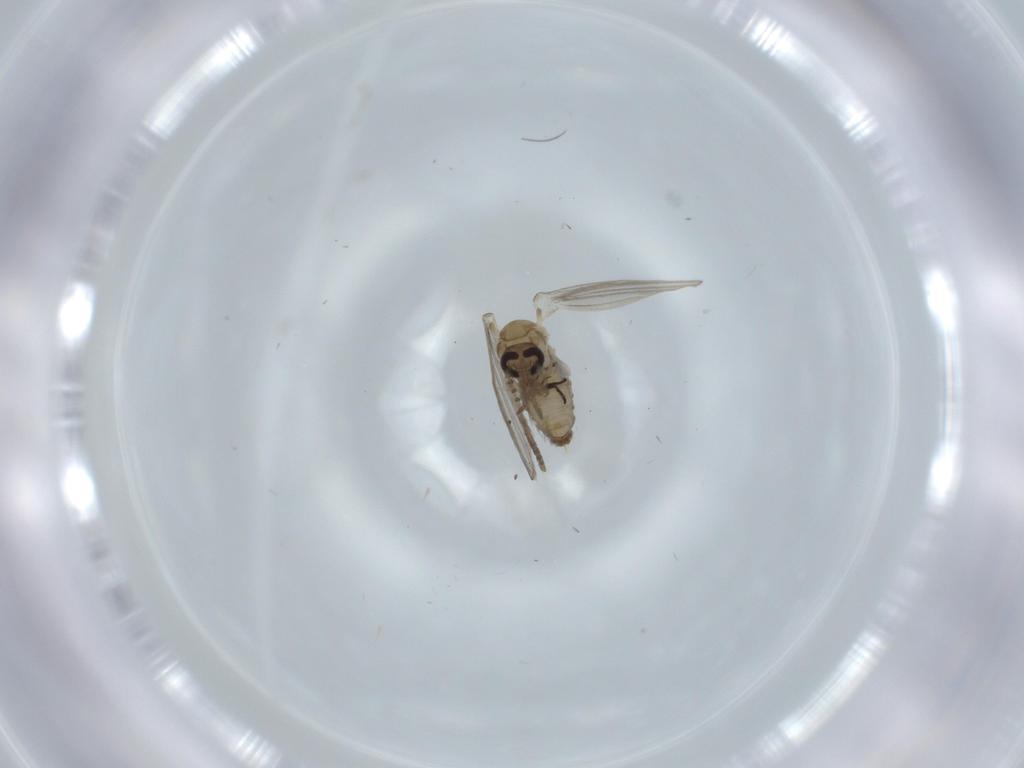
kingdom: Animalia
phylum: Arthropoda
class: Insecta
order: Diptera
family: Psychodidae
